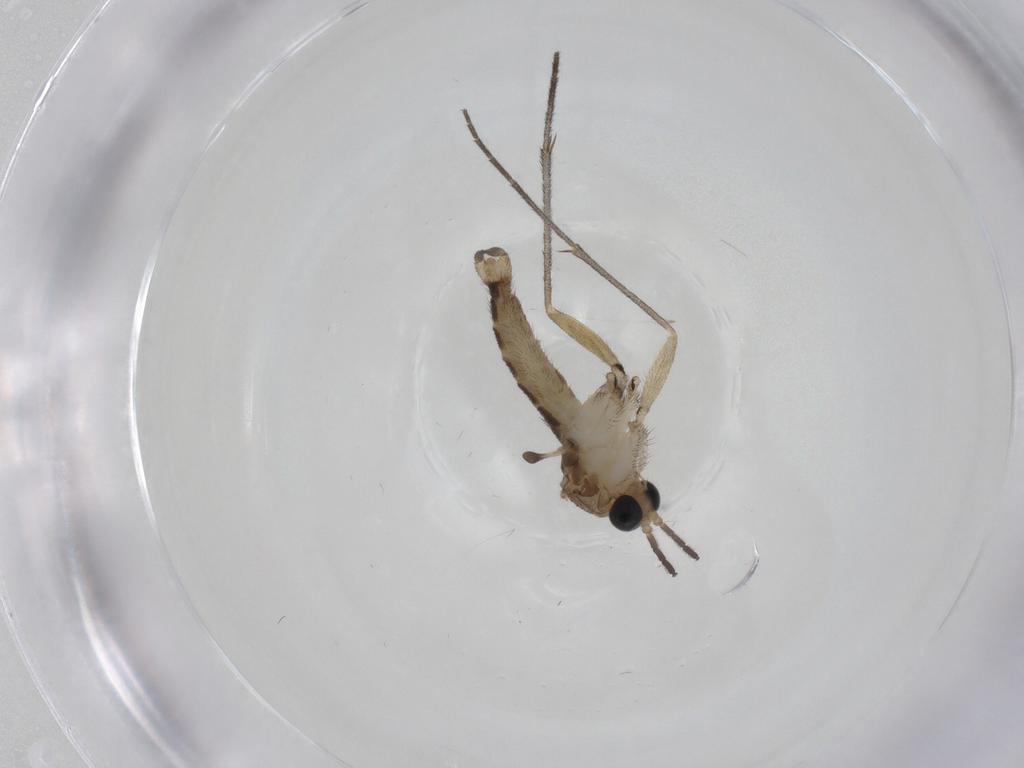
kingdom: Animalia
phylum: Arthropoda
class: Insecta
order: Diptera
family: Sciaridae
